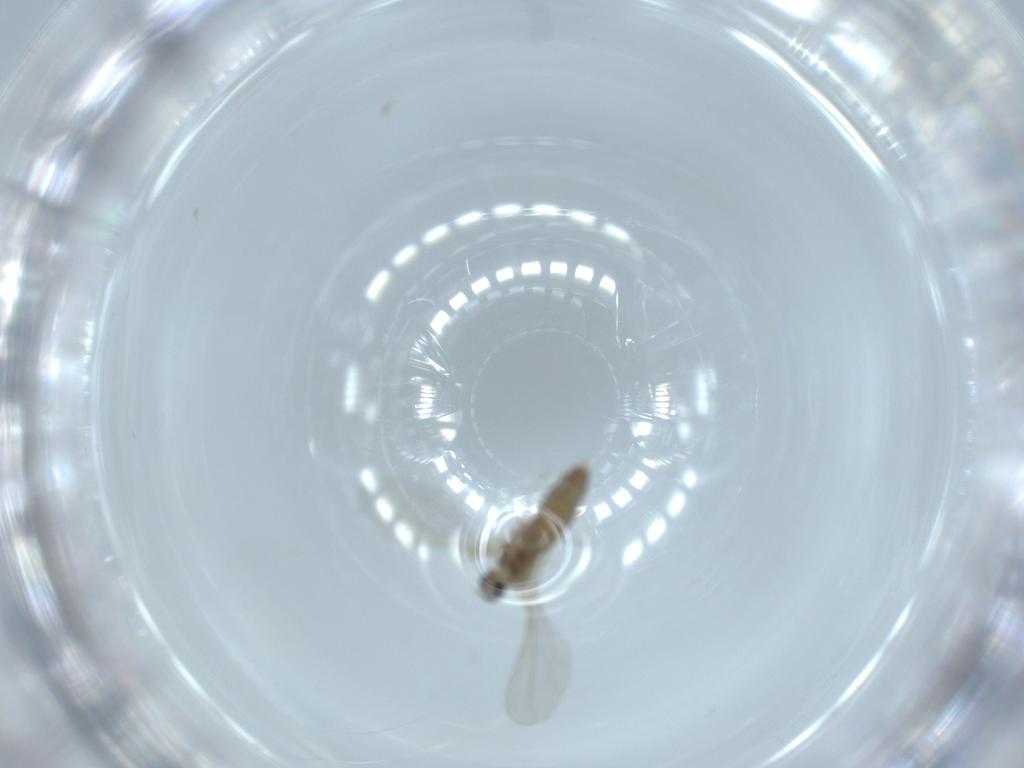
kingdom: Animalia
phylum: Arthropoda
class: Insecta
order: Diptera
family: Cecidomyiidae
